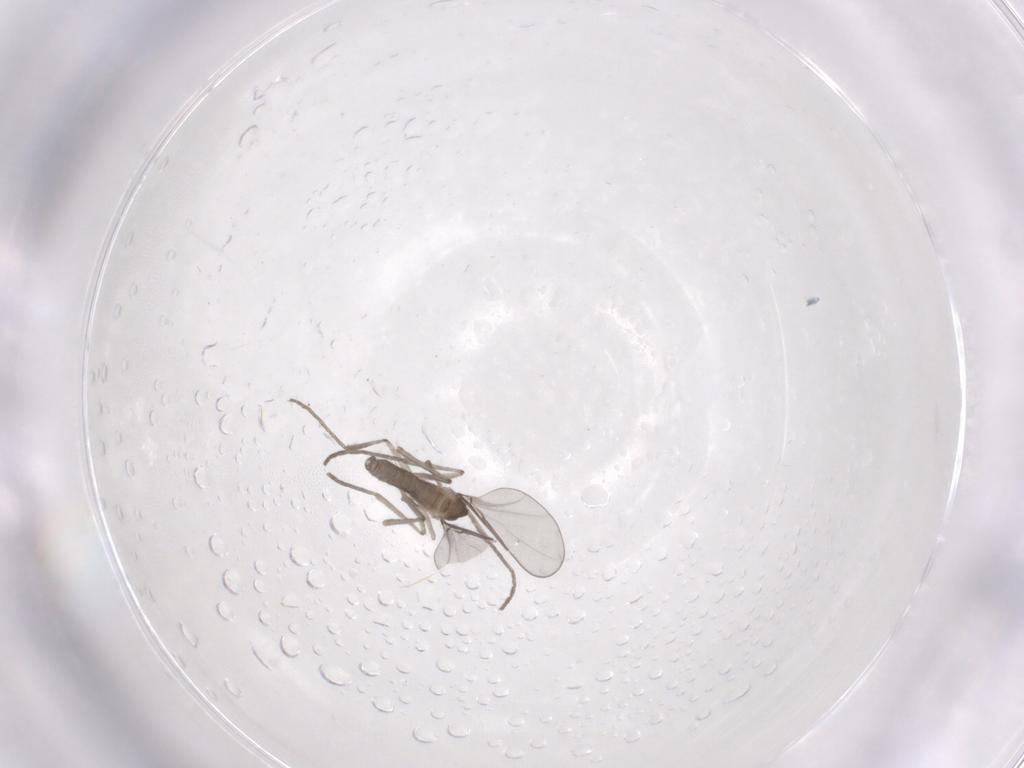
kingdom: Animalia
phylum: Arthropoda
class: Insecta
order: Diptera
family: Cecidomyiidae
